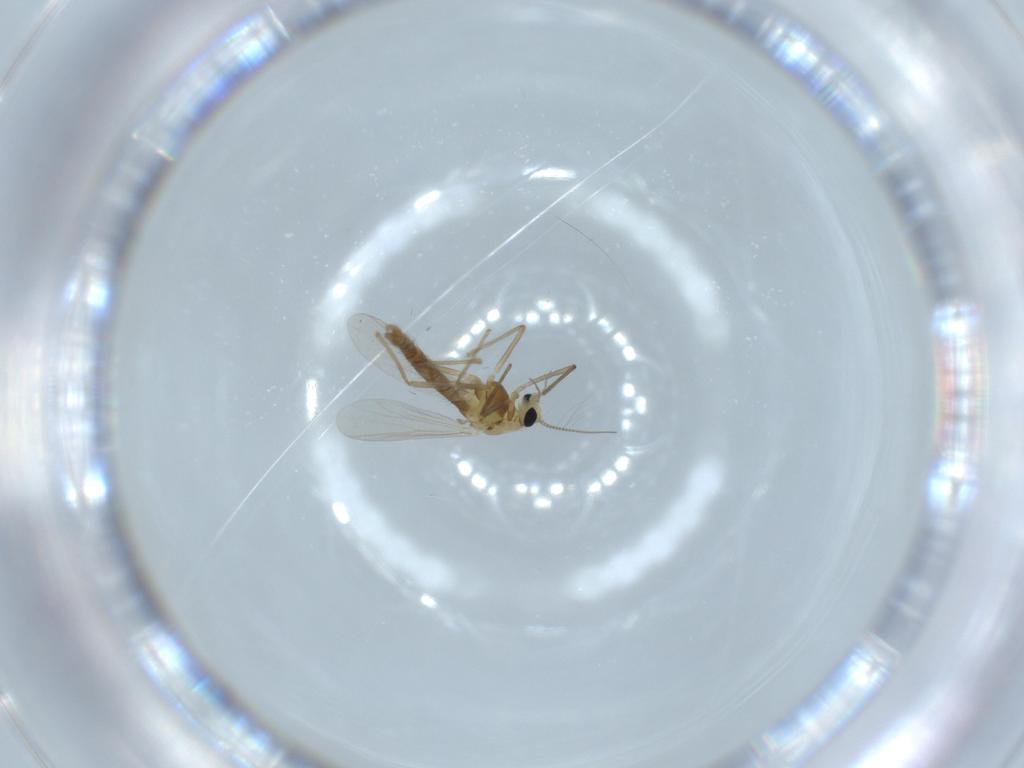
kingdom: Animalia
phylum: Arthropoda
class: Insecta
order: Diptera
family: Chironomidae
